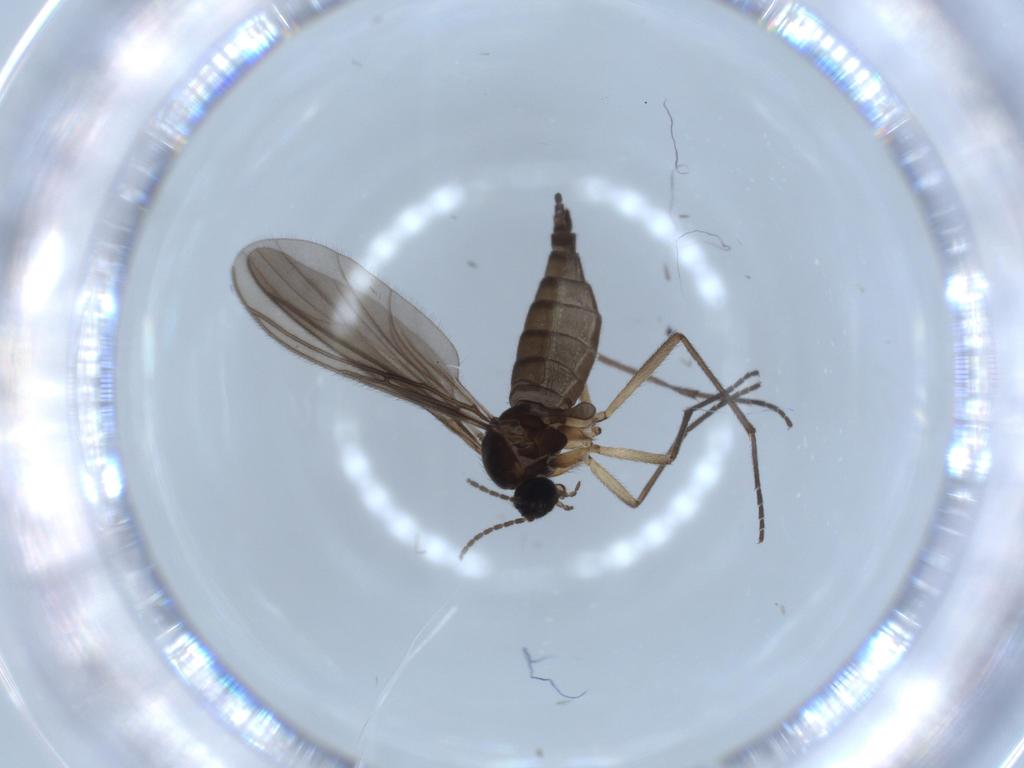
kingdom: Animalia
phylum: Arthropoda
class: Insecta
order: Diptera
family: Sciaridae
